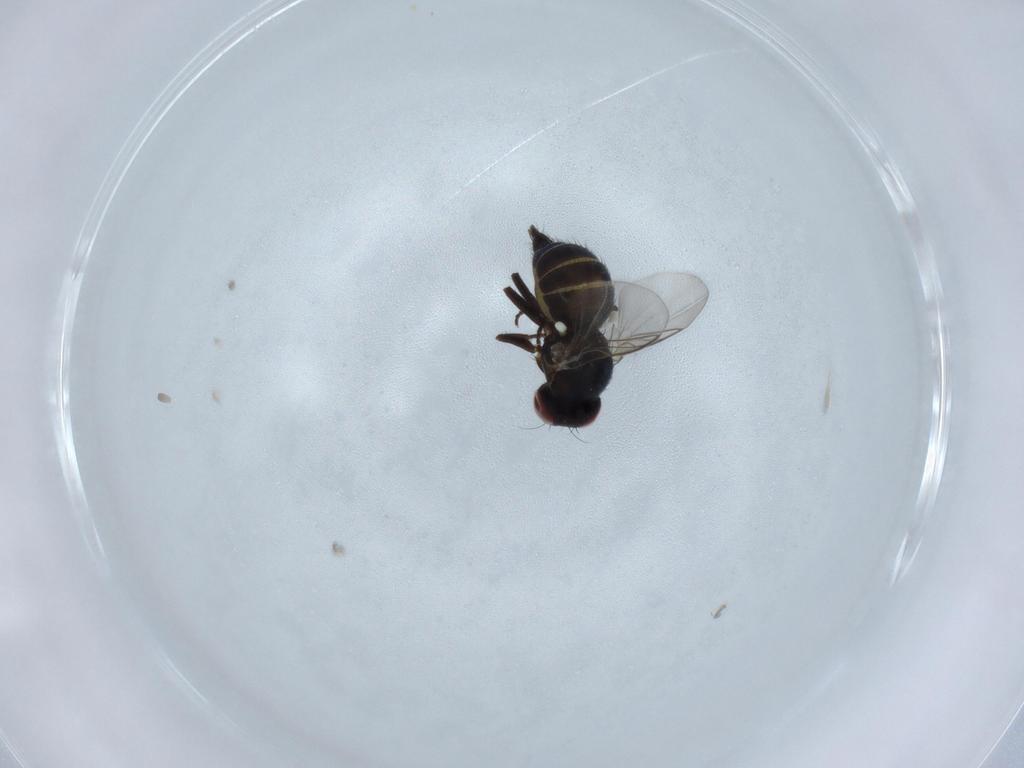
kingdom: Animalia
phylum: Arthropoda
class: Insecta
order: Diptera
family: Chironomidae
